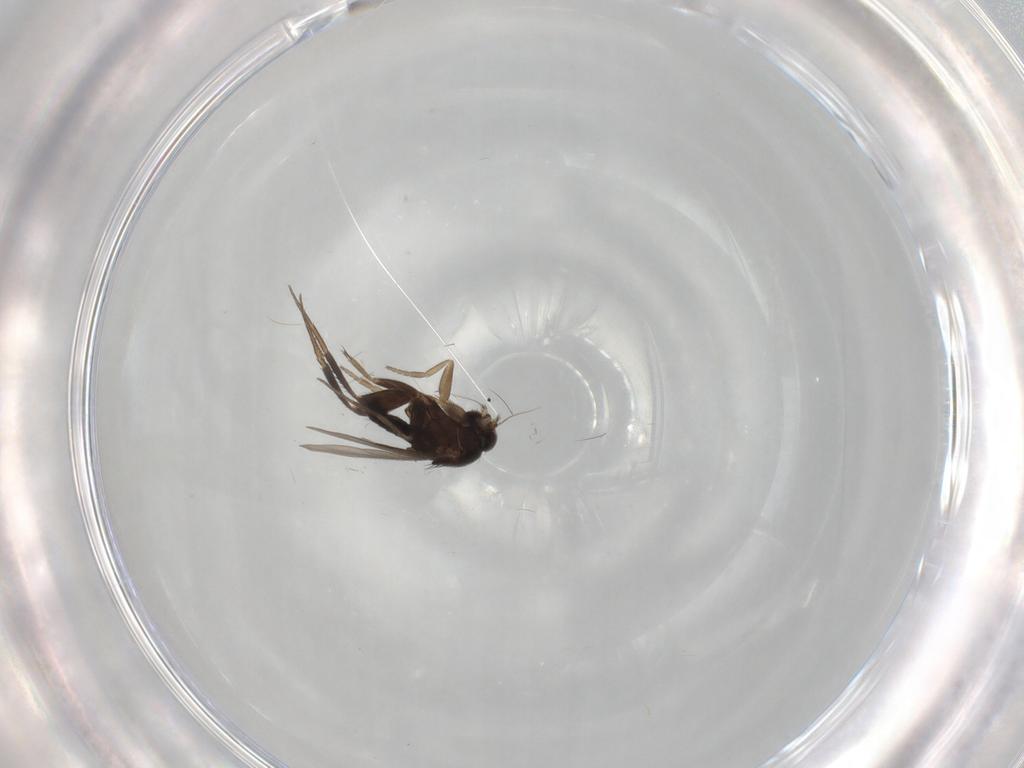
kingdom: Animalia
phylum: Arthropoda
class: Insecta
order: Diptera
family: Phoridae
